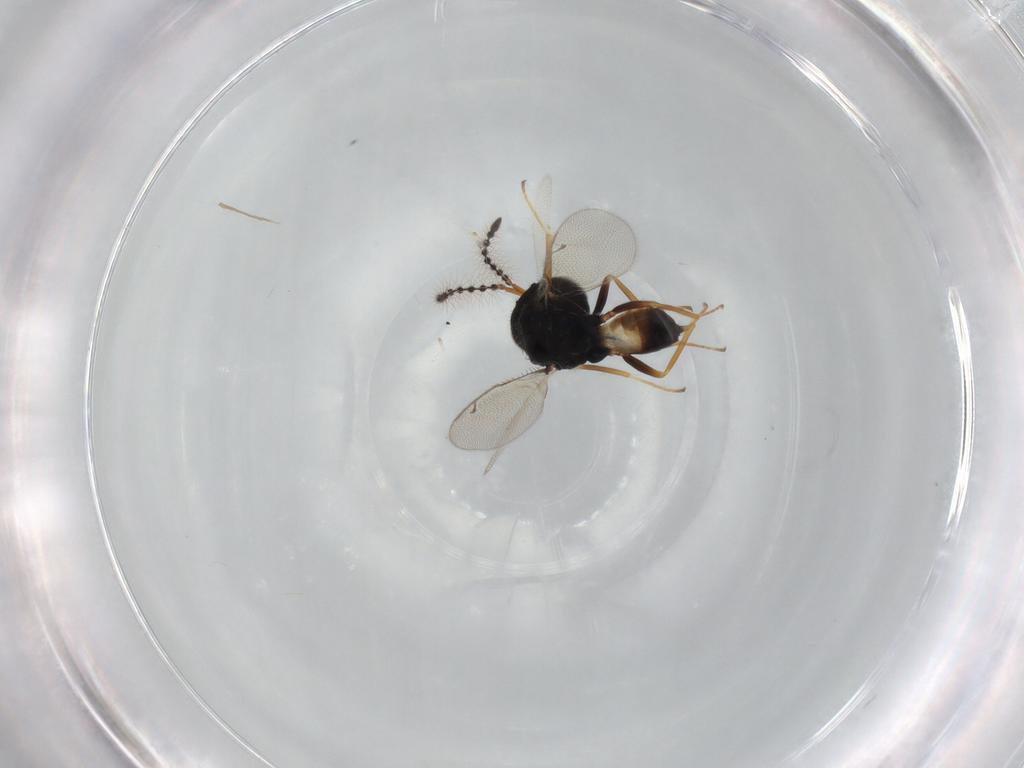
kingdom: Animalia
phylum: Arthropoda
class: Insecta
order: Hymenoptera
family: Pteromalidae
